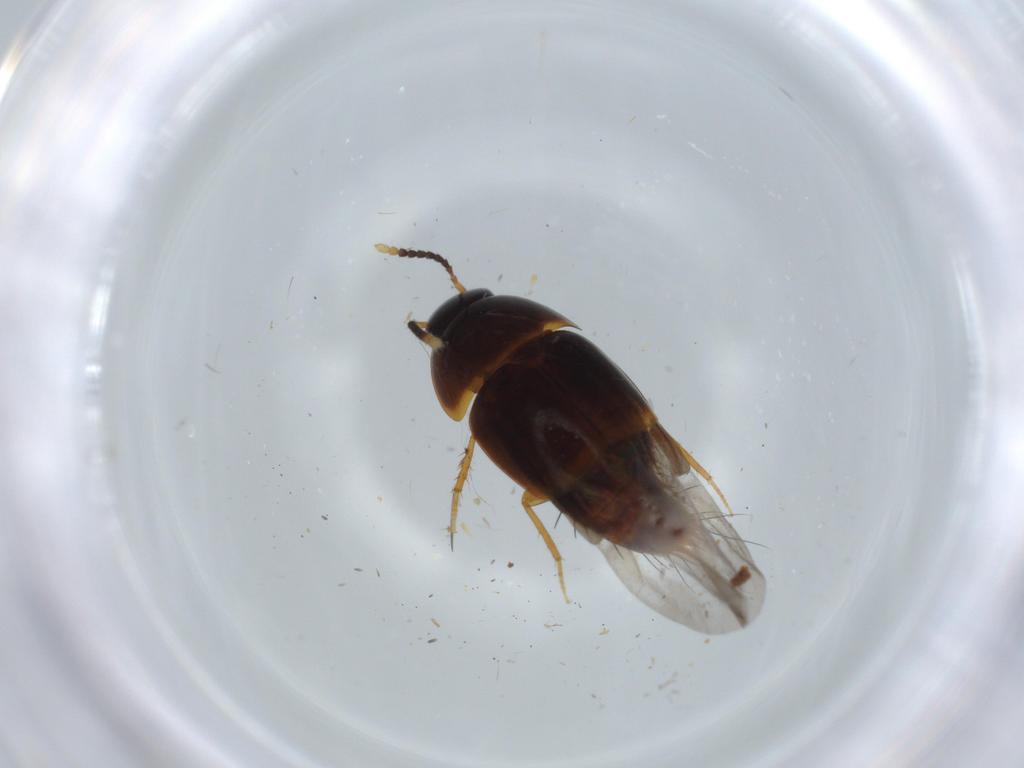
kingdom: Animalia
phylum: Arthropoda
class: Insecta
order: Coleoptera
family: Staphylinidae
